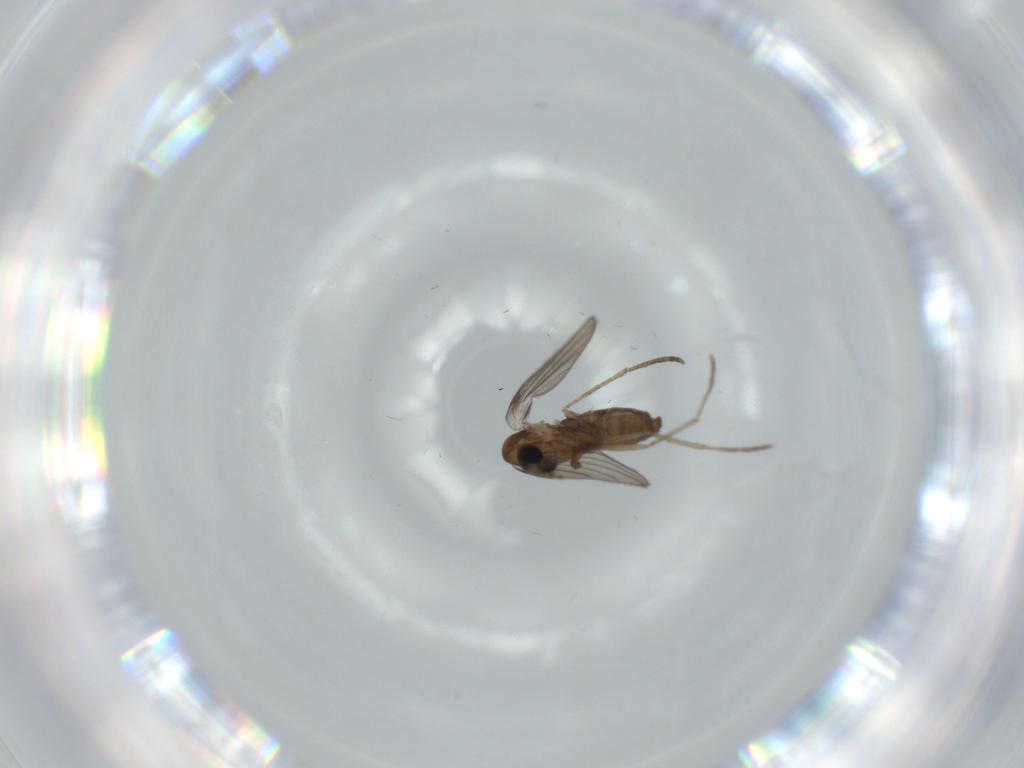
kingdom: Animalia
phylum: Arthropoda
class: Insecta
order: Diptera
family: Psychodidae
